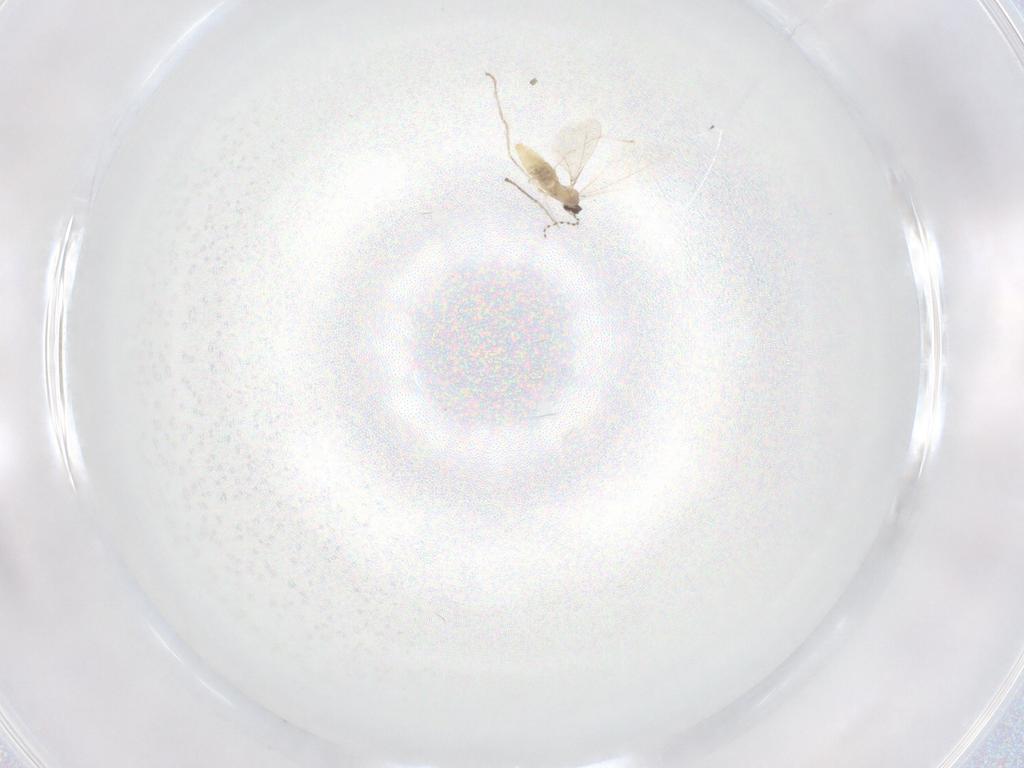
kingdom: Animalia
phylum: Arthropoda
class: Insecta
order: Diptera
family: Cecidomyiidae
